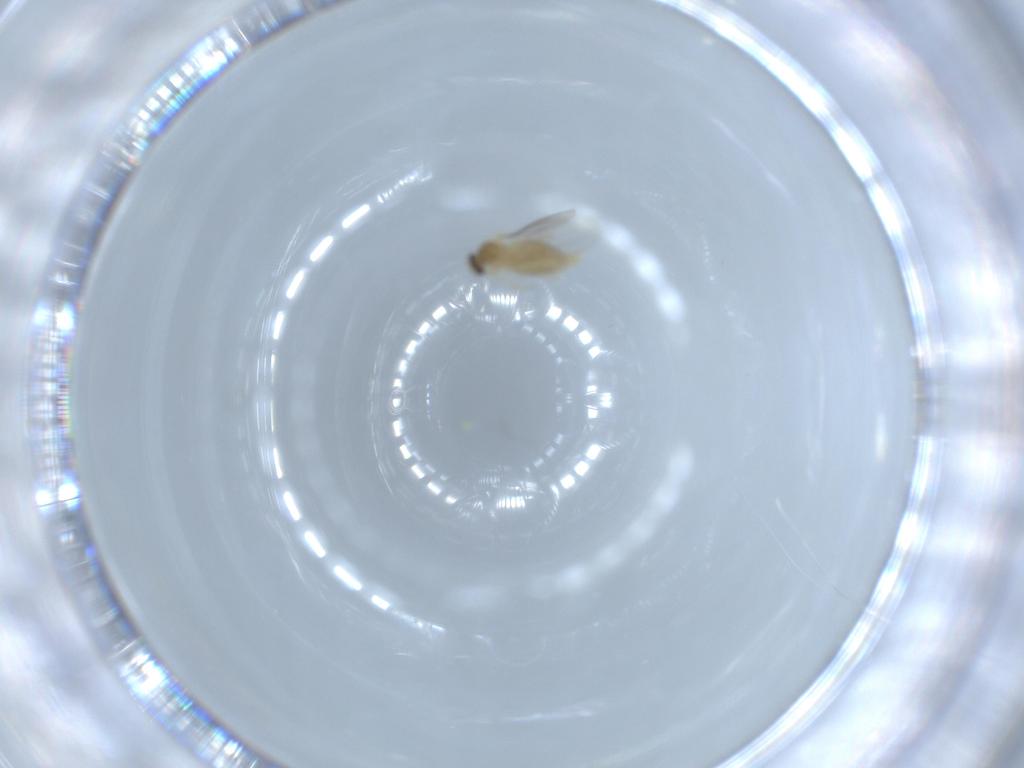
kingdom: Animalia
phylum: Arthropoda
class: Insecta
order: Diptera
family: Cecidomyiidae
